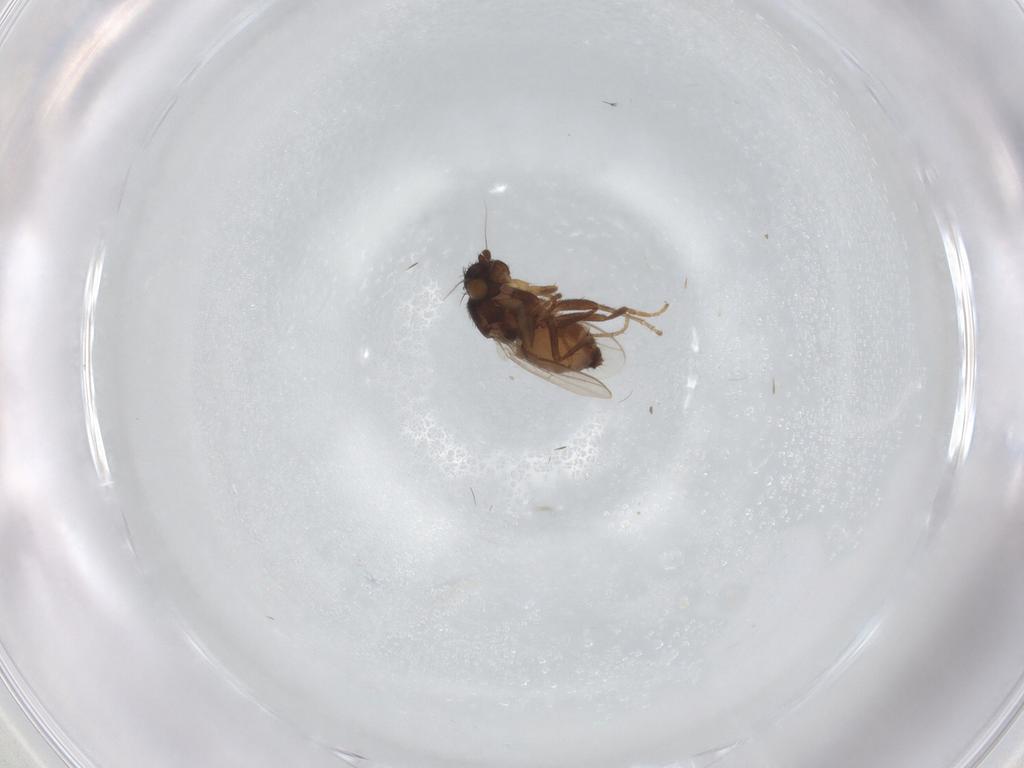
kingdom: Animalia
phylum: Arthropoda
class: Insecta
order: Diptera
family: Sphaeroceridae
